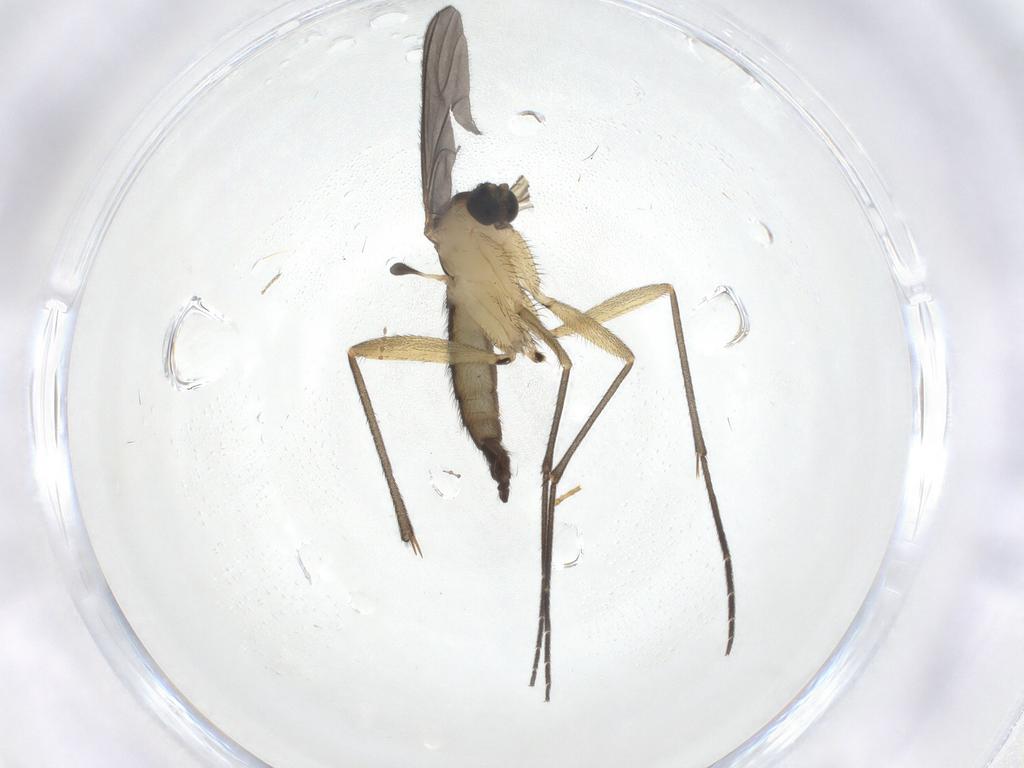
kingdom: Animalia
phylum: Arthropoda
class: Insecta
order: Diptera
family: Sciaridae
